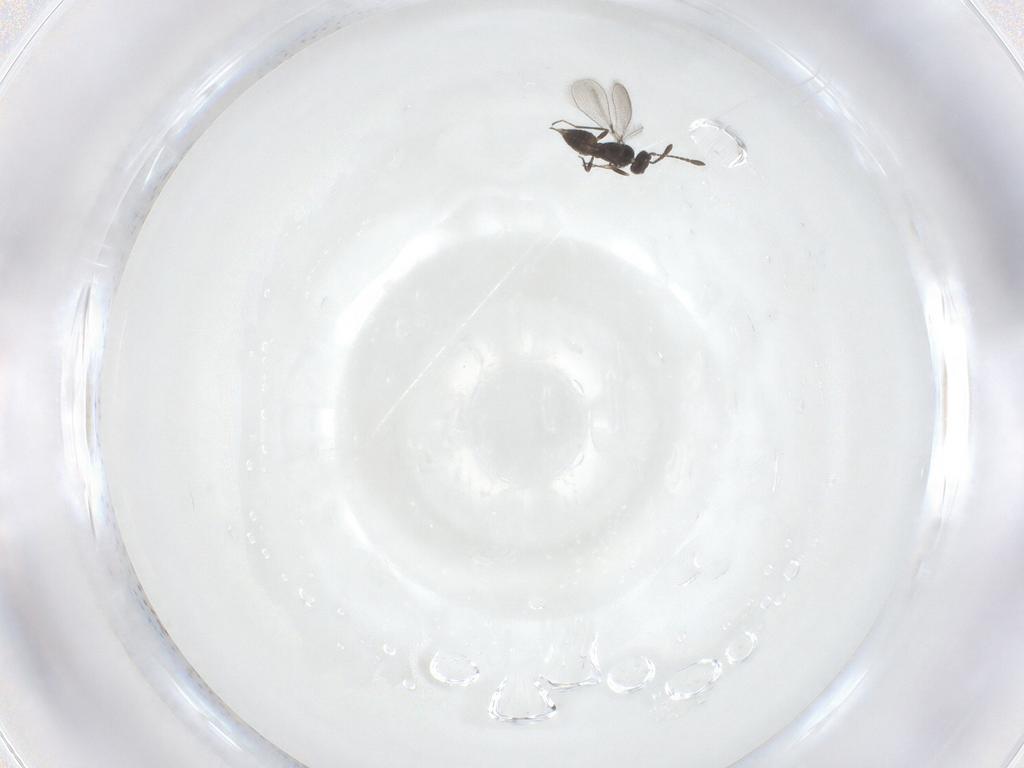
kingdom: Animalia
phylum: Arthropoda
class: Insecta
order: Hymenoptera
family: Mymaridae
